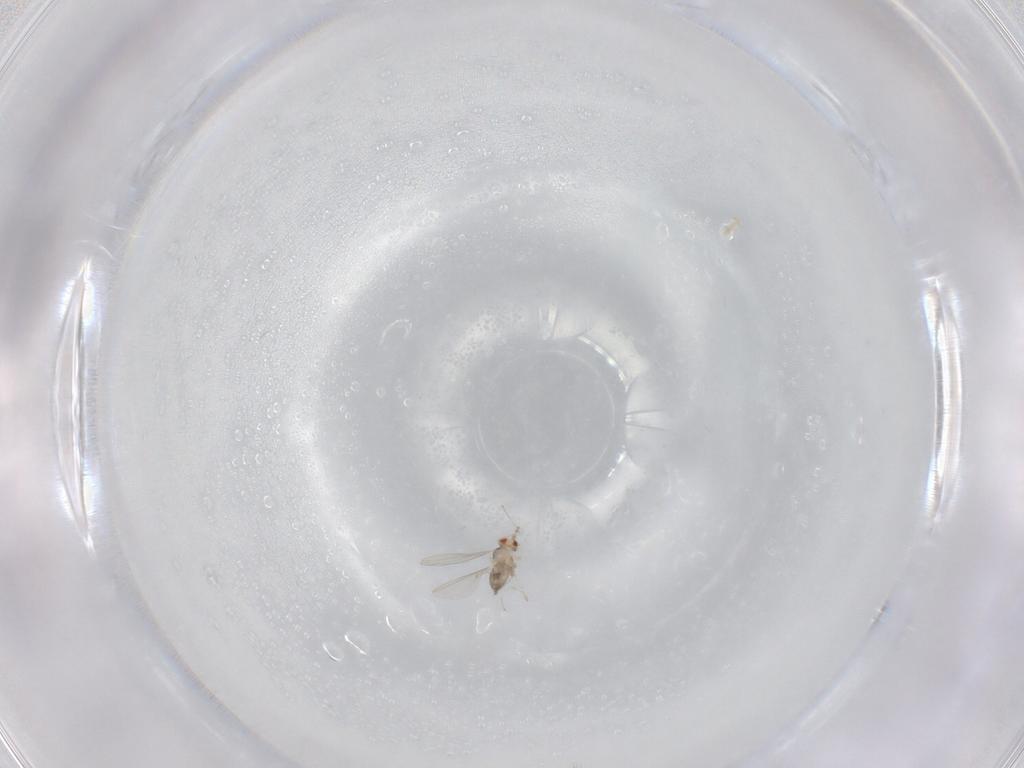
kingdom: Animalia
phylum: Arthropoda
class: Insecta
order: Diptera
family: Cecidomyiidae
